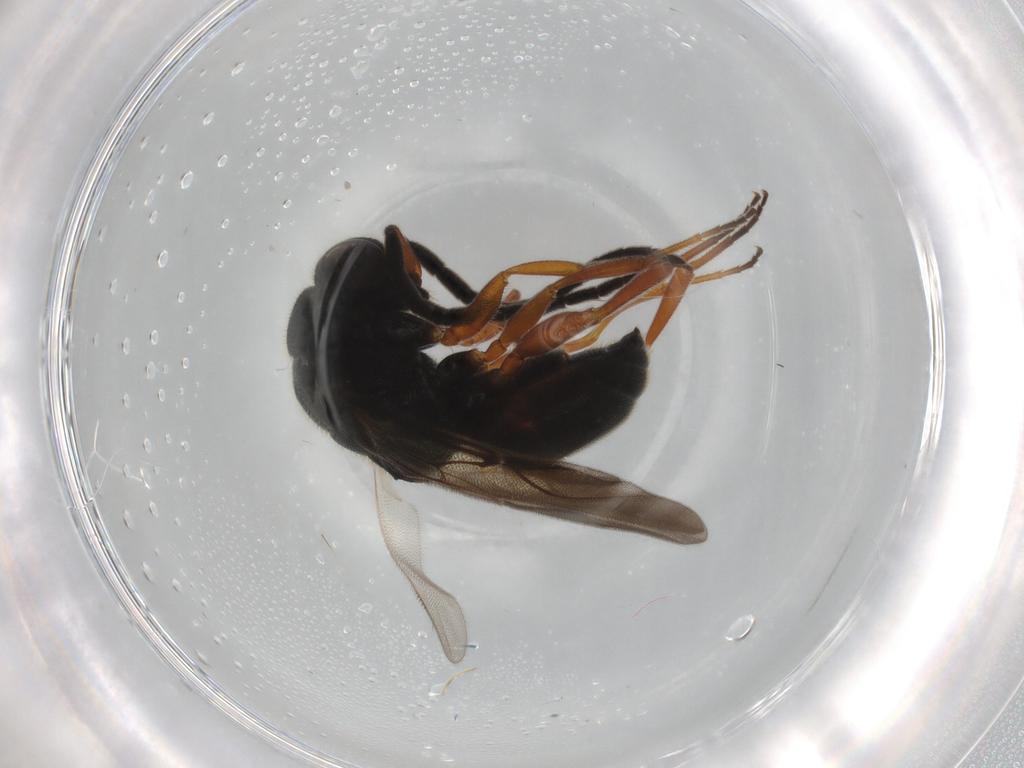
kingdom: Animalia
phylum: Arthropoda
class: Insecta
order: Hymenoptera
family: Chrysididae
